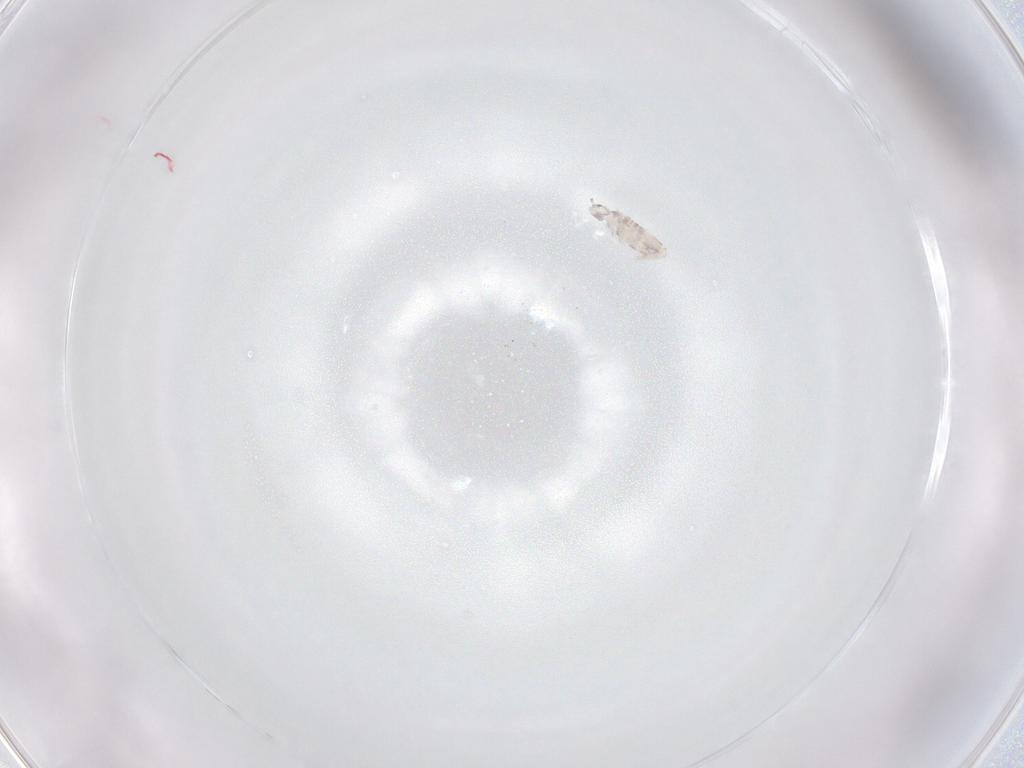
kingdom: Animalia
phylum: Arthropoda
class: Collembola
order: Entomobryomorpha
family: Entomobryidae
